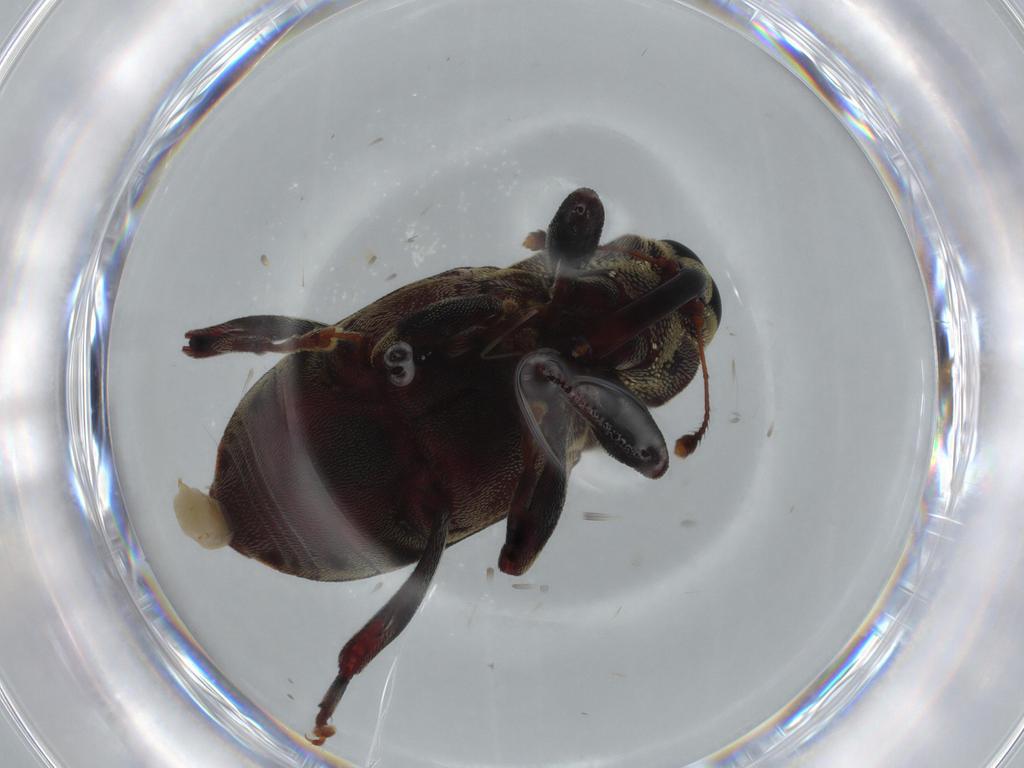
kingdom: Animalia
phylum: Arthropoda
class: Insecta
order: Coleoptera
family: Curculionidae
